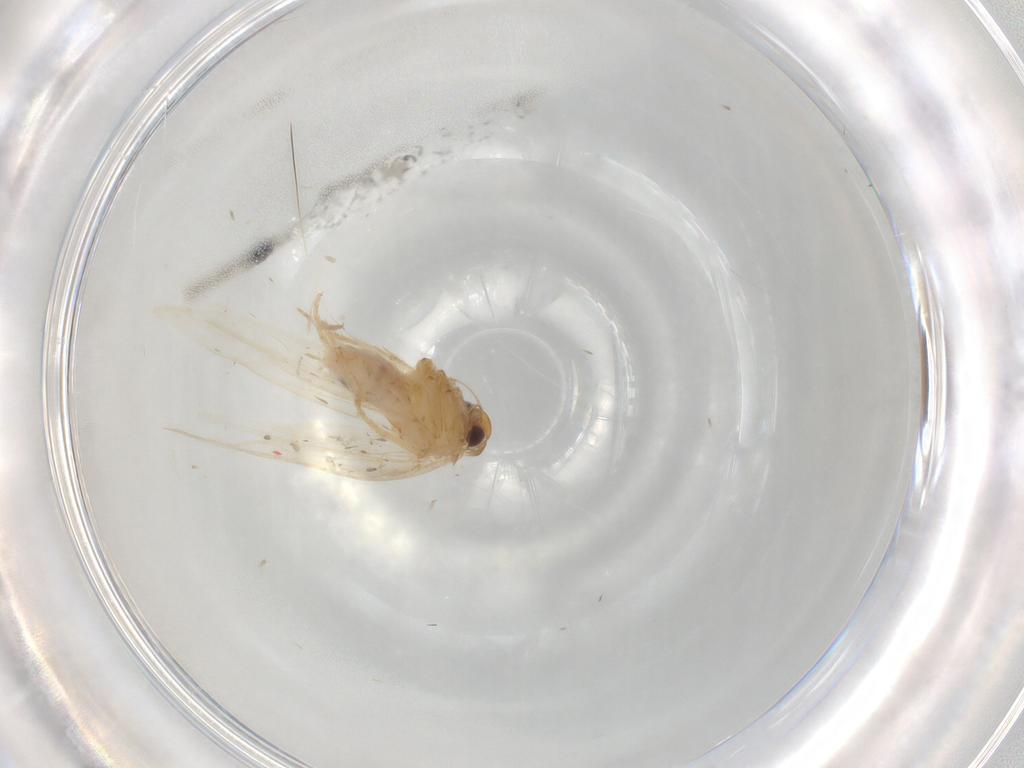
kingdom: Animalia
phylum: Arthropoda
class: Insecta
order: Lepidoptera
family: Gelechiidae
